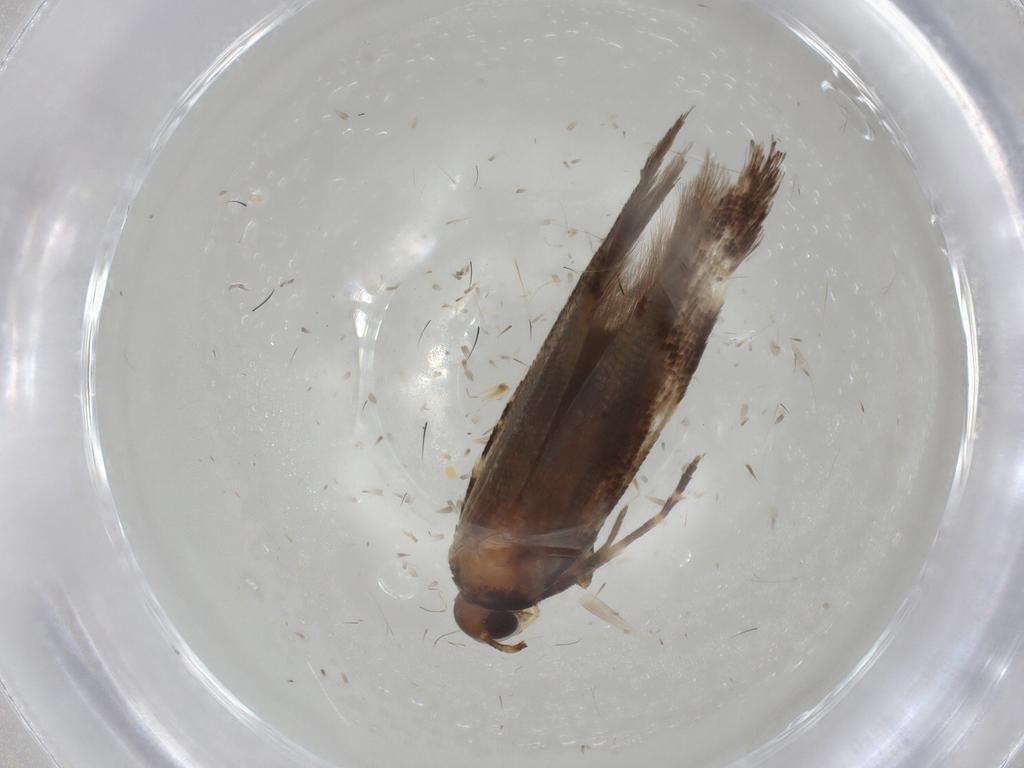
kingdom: Animalia
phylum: Arthropoda
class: Insecta
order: Lepidoptera
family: Gelechiidae
